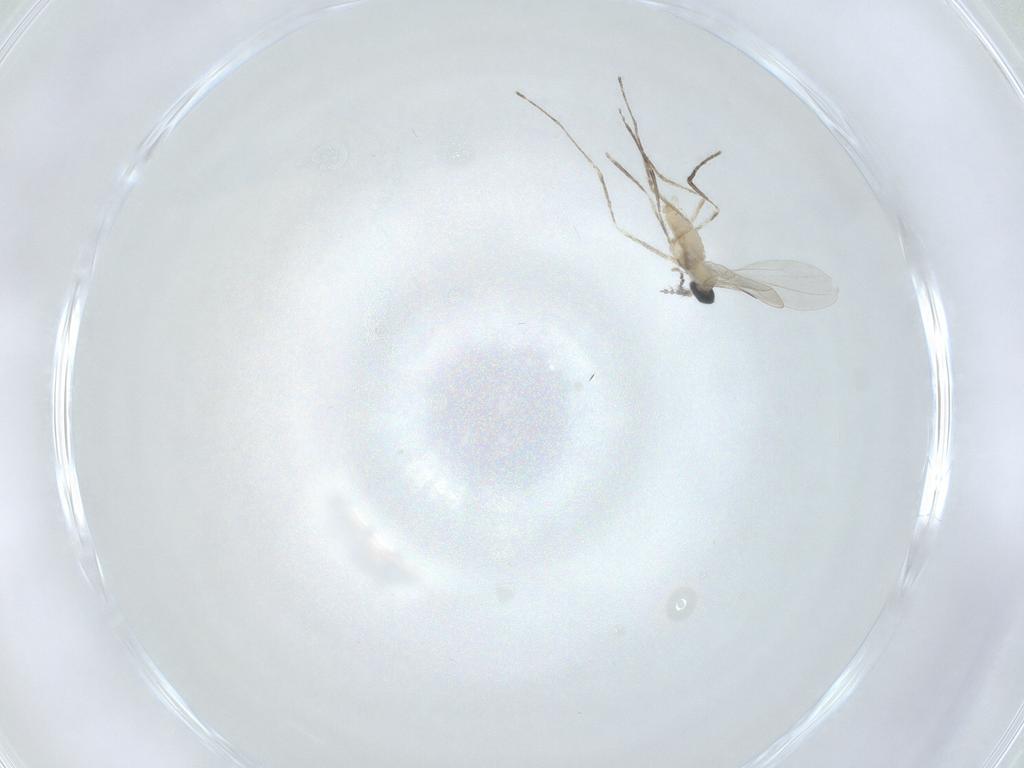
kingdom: Animalia
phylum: Arthropoda
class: Insecta
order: Diptera
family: Cecidomyiidae
